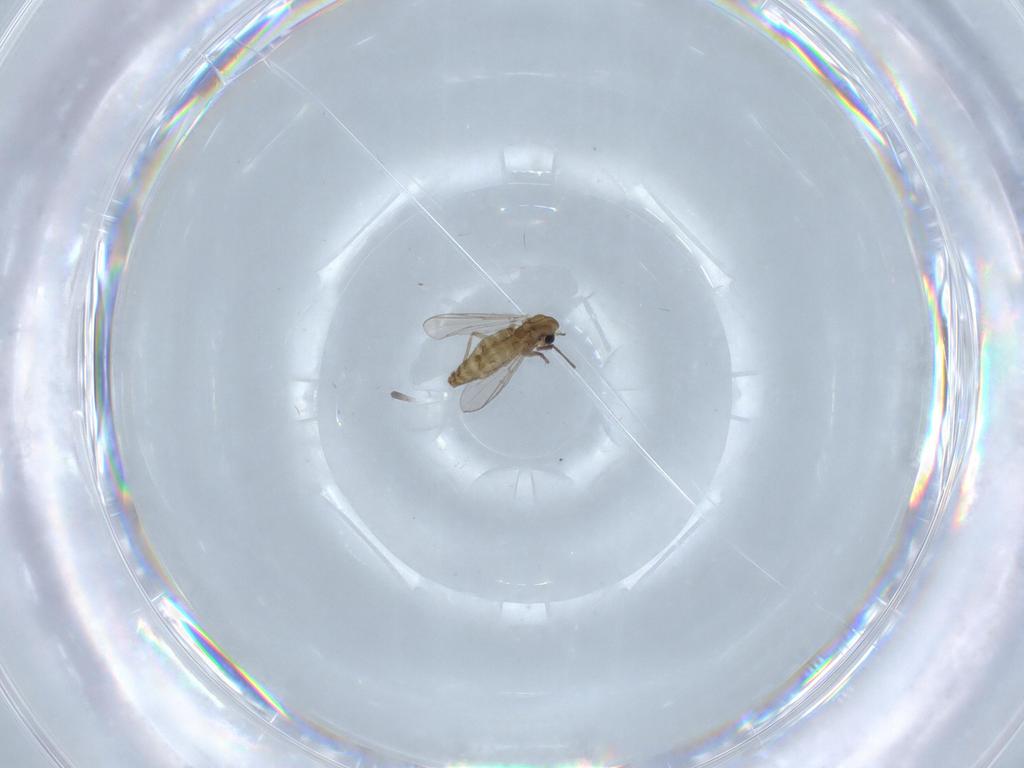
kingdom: Animalia
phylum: Arthropoda
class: Insecta
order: Diptera
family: Chironomidae
